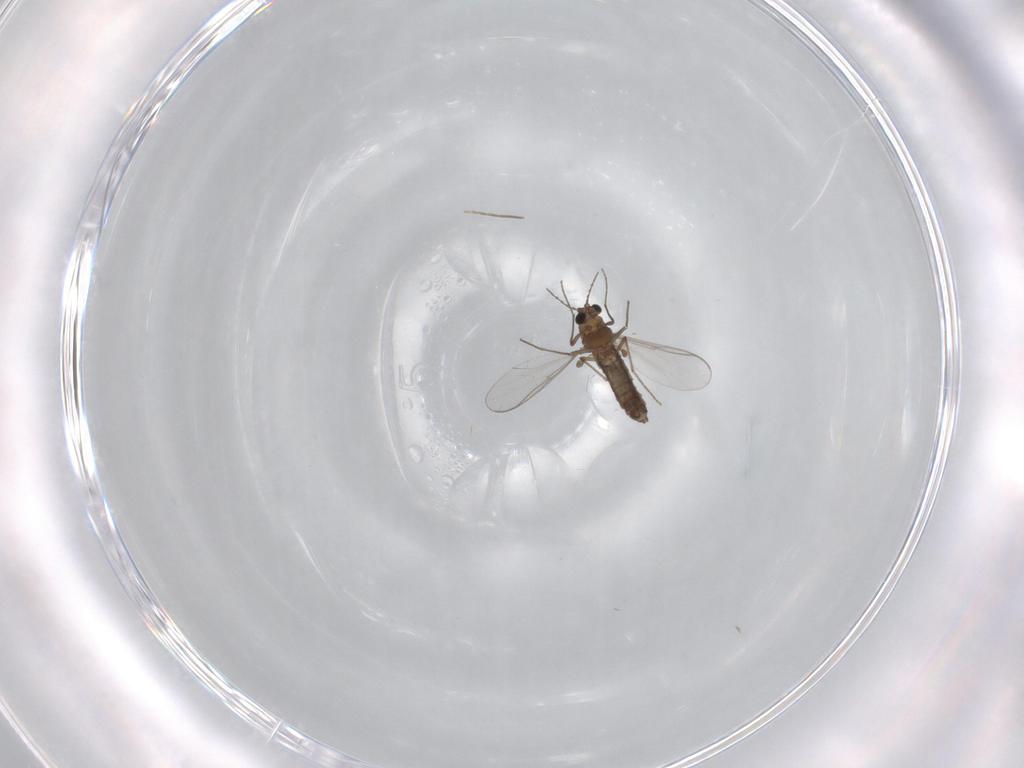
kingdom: Animalia
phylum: Arthropoda
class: Insecta
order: Diptera
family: Chironomidae
